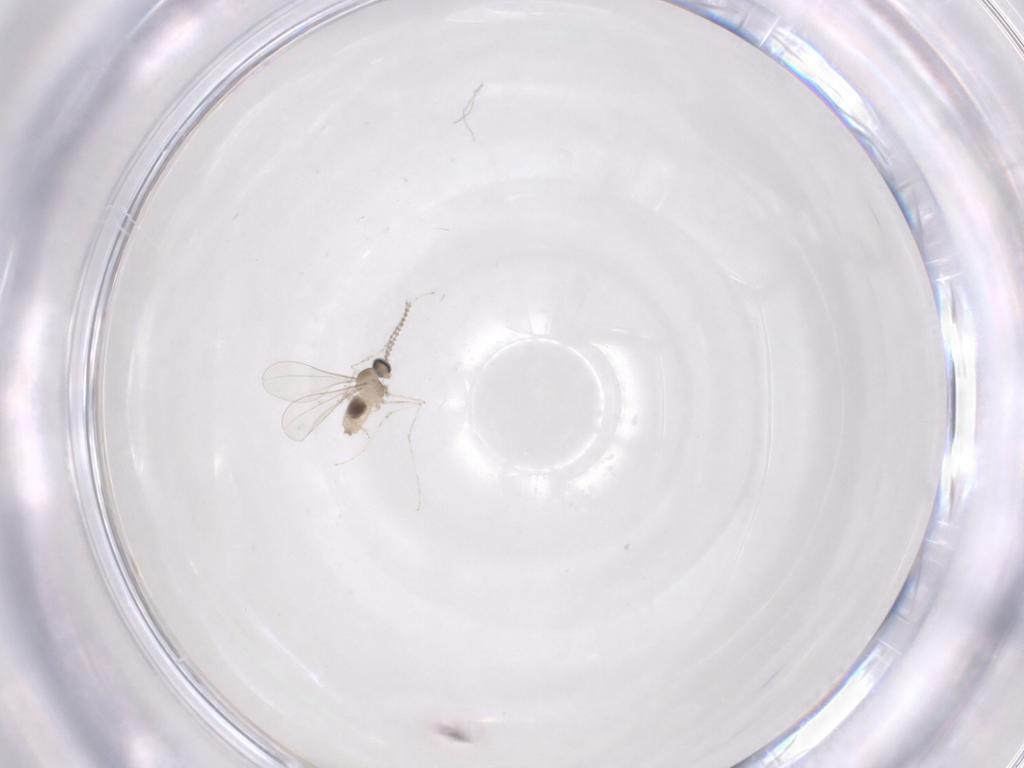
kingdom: Animalia
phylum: Arthropoda
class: Insecta
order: Diptera
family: Cecidomyiidae
